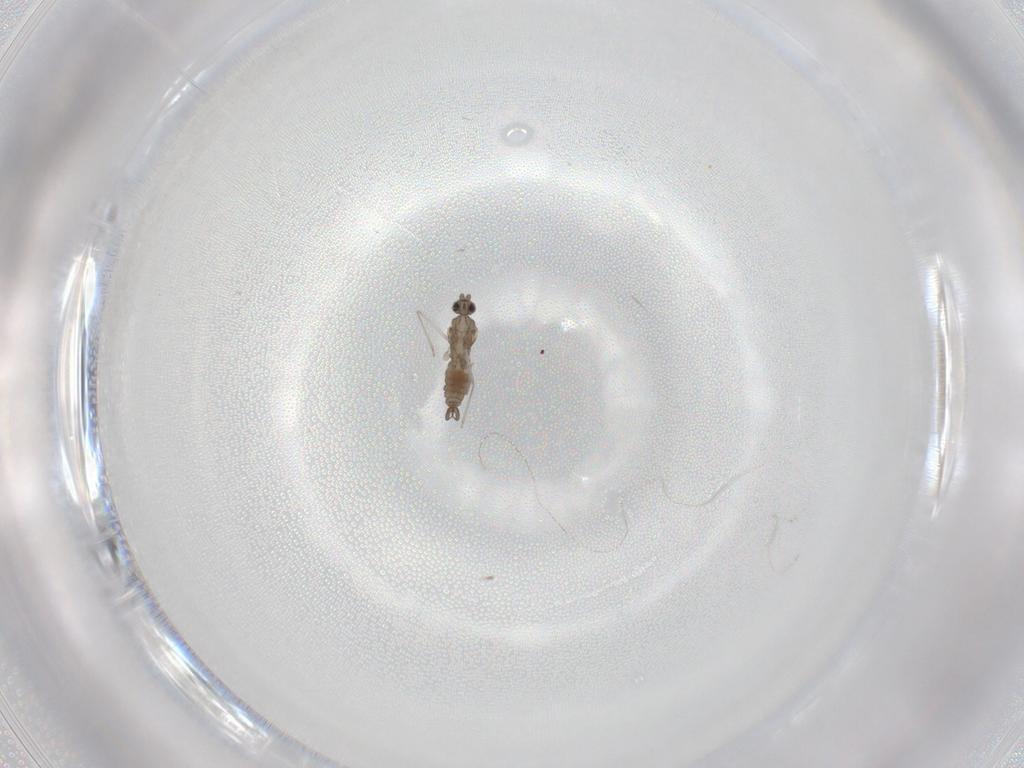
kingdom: Animalia
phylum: Arthropoda
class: Insecta
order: Diptera
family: Cecidomyiidae
